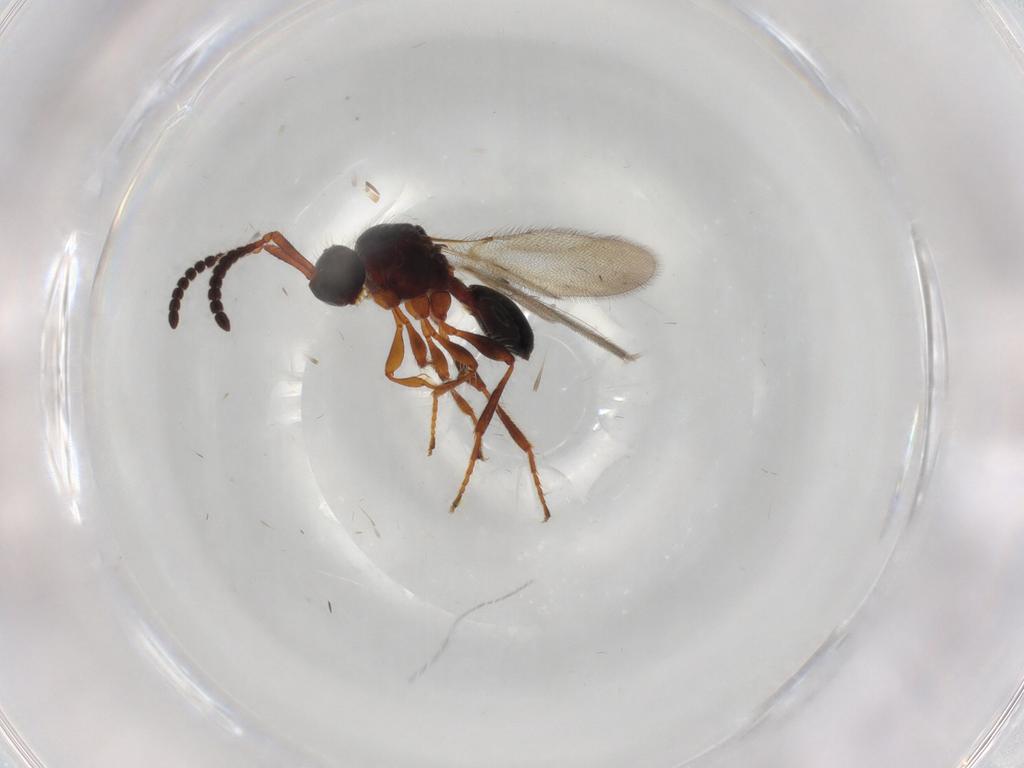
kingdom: Animalia
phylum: Arthropoda
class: Insecta
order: Hymenoptera
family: Diapriidae
